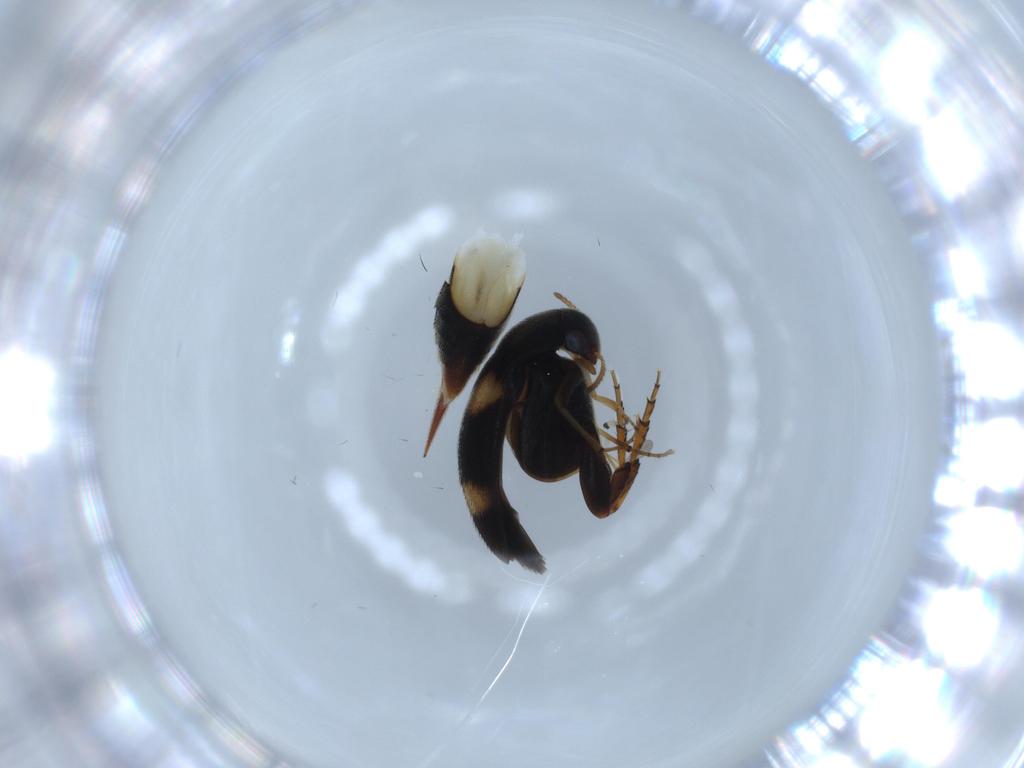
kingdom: Animalia
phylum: Arthropoda
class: Insecta
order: Coleoptera
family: Mordellidae
